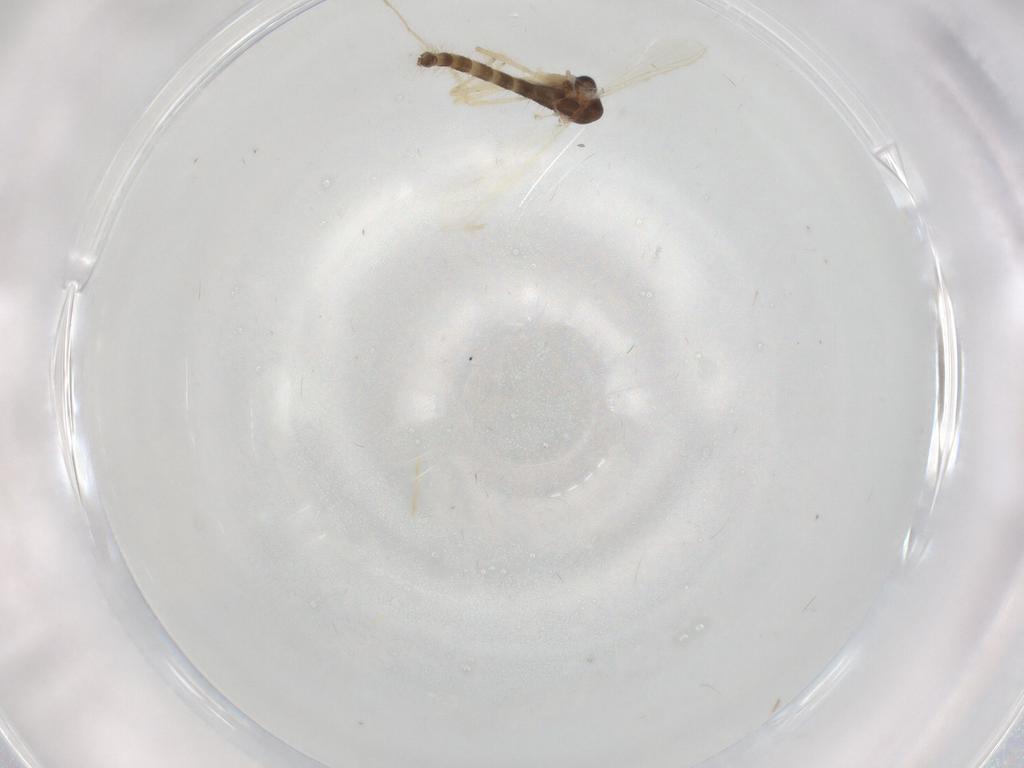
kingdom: Animalia
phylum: Arthropoda
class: Insecta
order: Diptera
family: Chironomidae
